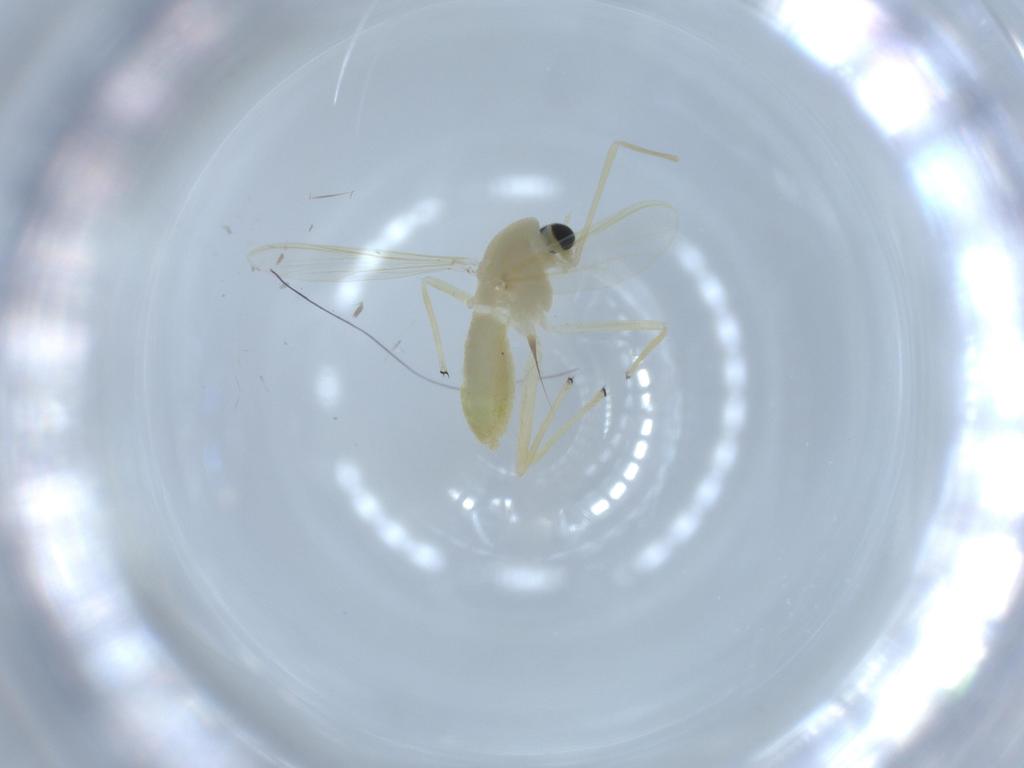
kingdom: Animalia
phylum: Arthropoda
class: Insecta
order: Diptera
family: Chironomidae
